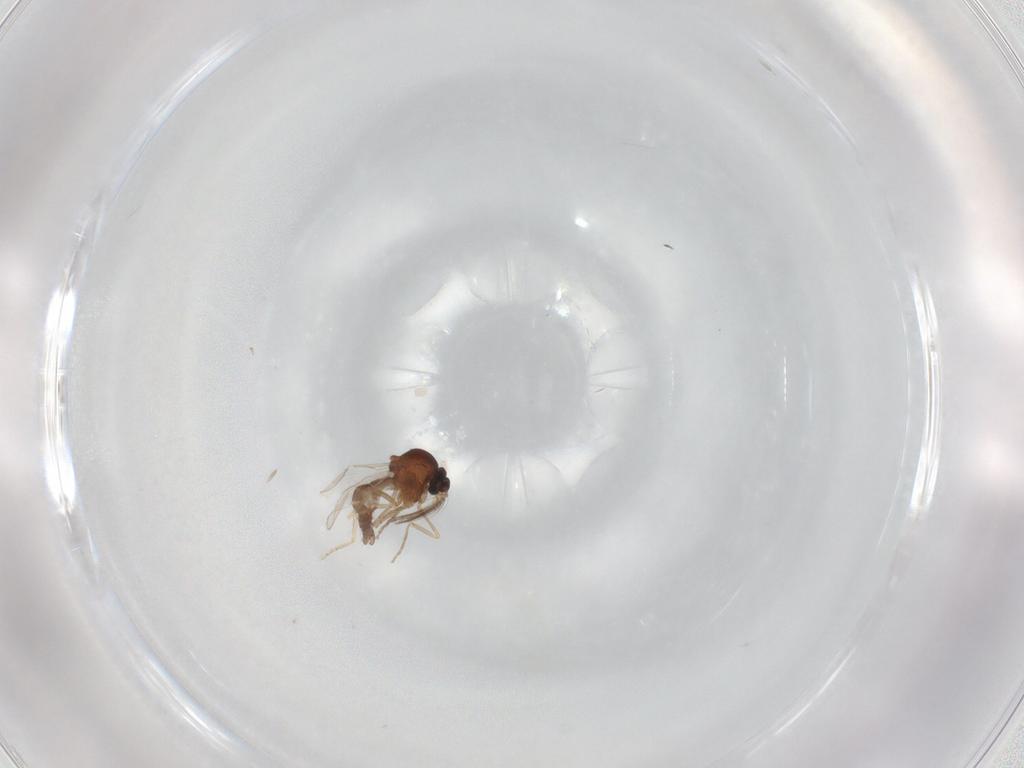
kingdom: Animalia
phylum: Arthropoda
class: Insecta
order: Diptera
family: Ceratopogonidae
